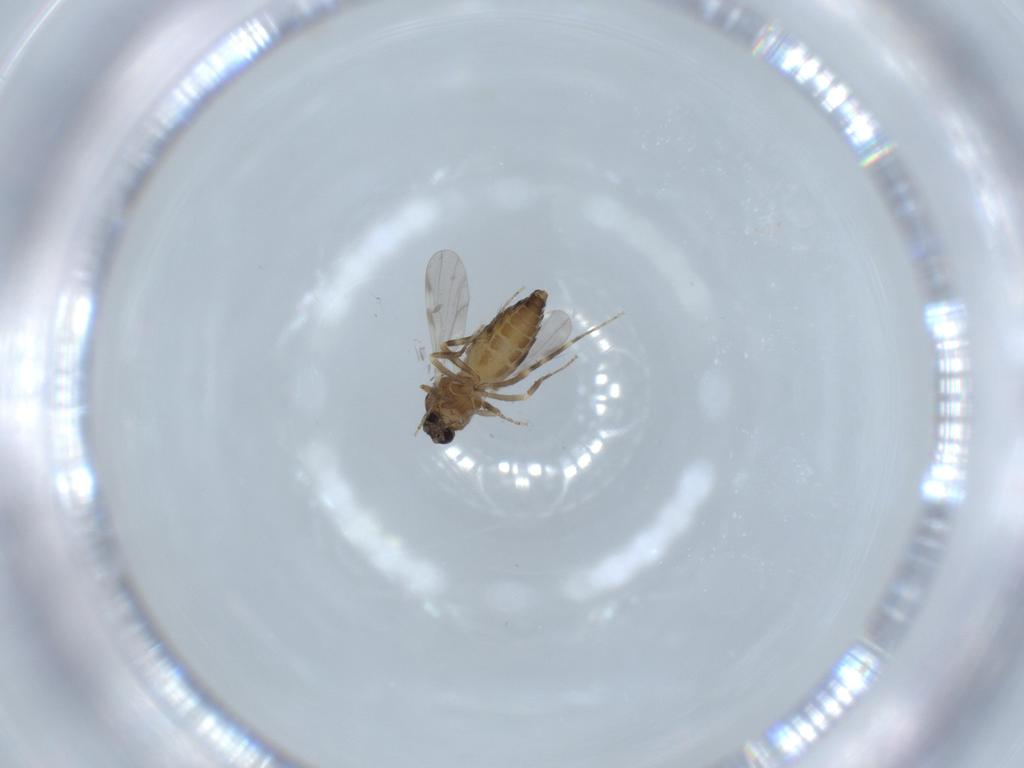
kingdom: Animalia
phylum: Arthropoda
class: Insecta
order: Diptera
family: Ceratopogonidae
